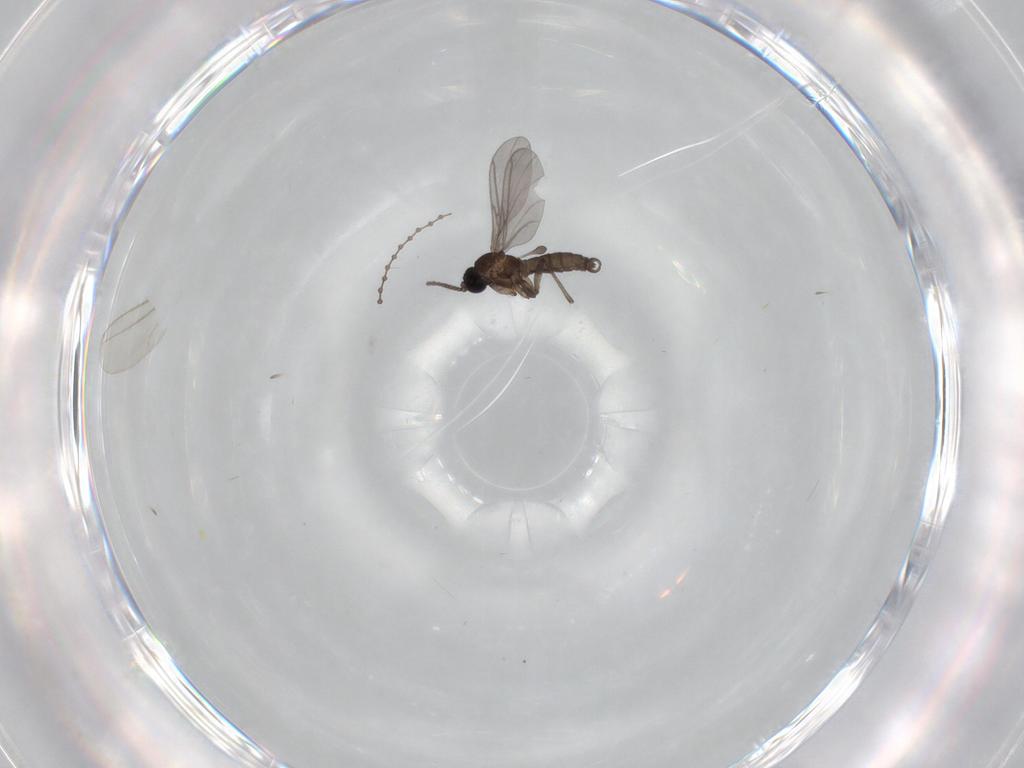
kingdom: Animalia
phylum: Arthropoda
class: Insecta
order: Diptera
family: Sciaridae
